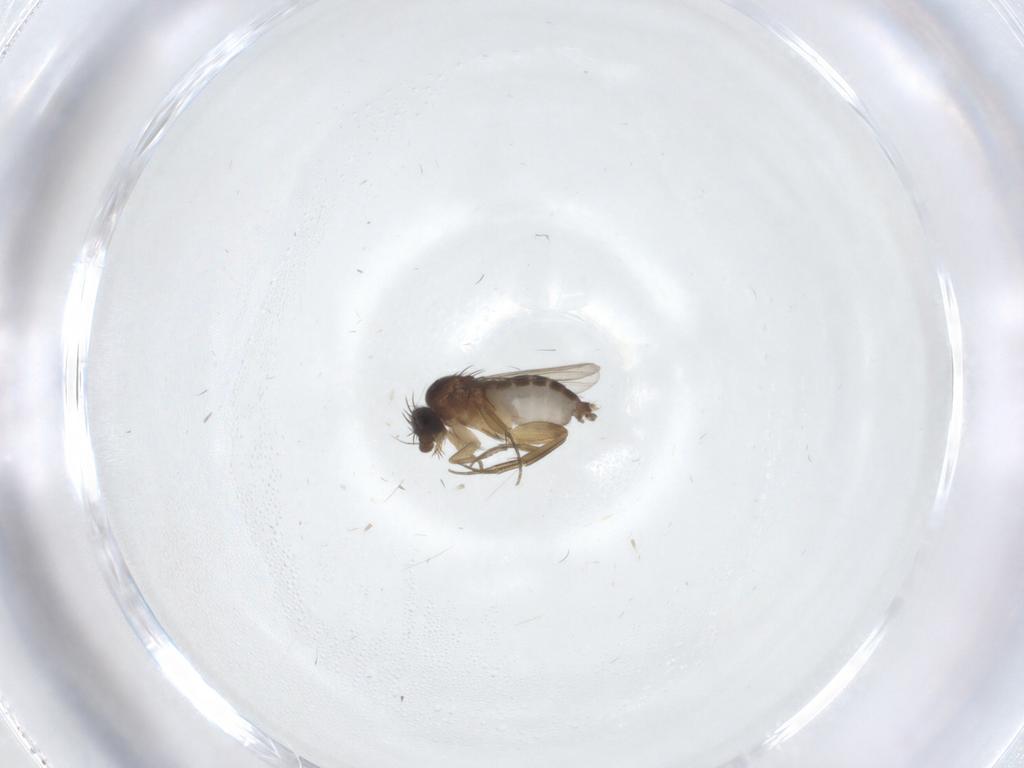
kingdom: Animalia
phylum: Arthropoda
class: Insecta
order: Diptera
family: Phoridae
